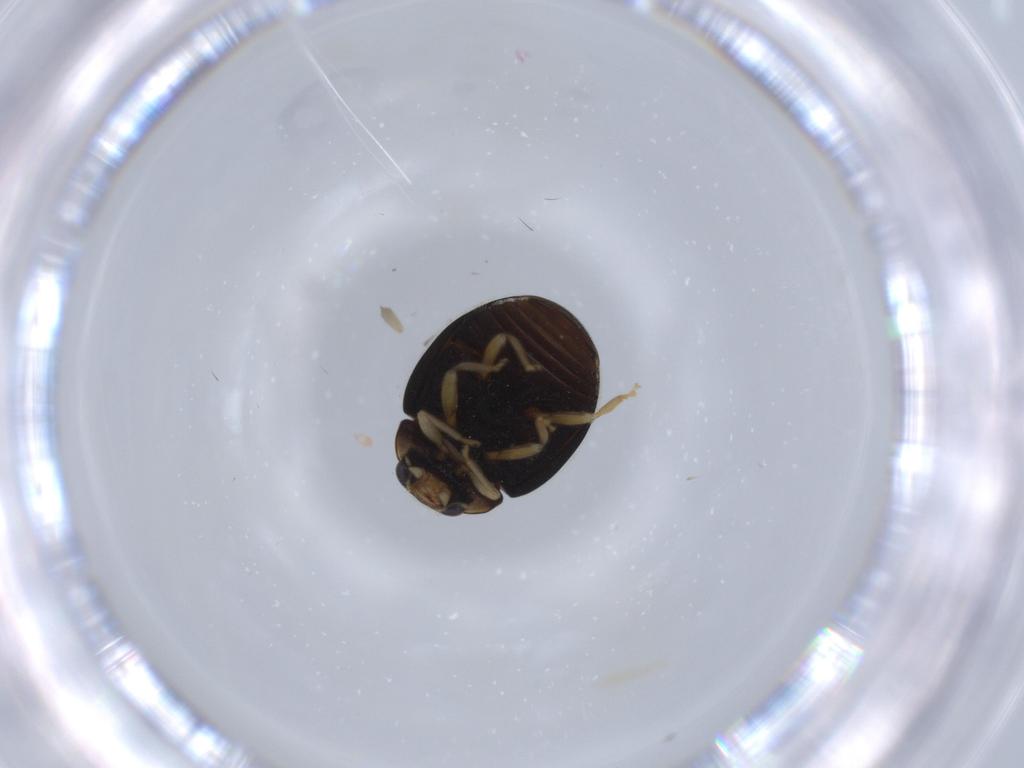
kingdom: Animalia
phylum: Arthropoda
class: Insecta
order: Coleoptera
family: Coccinellidae
